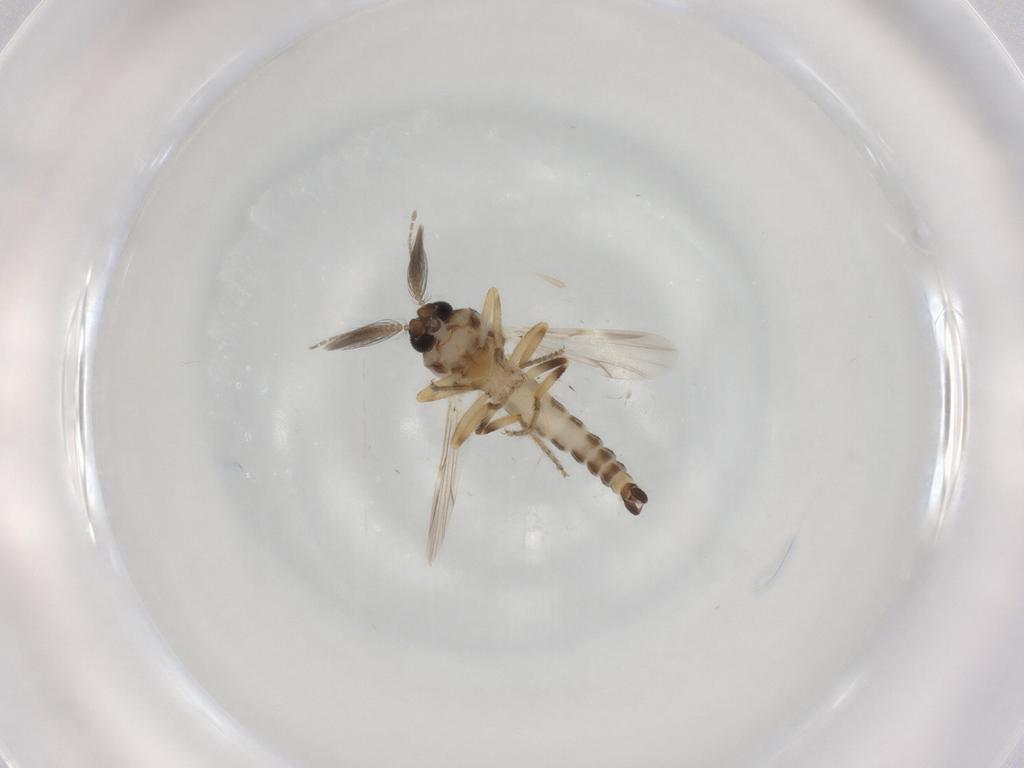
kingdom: Animalia
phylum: Arthropoda
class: Insecta
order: Diptera
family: Ceratopogonidae
